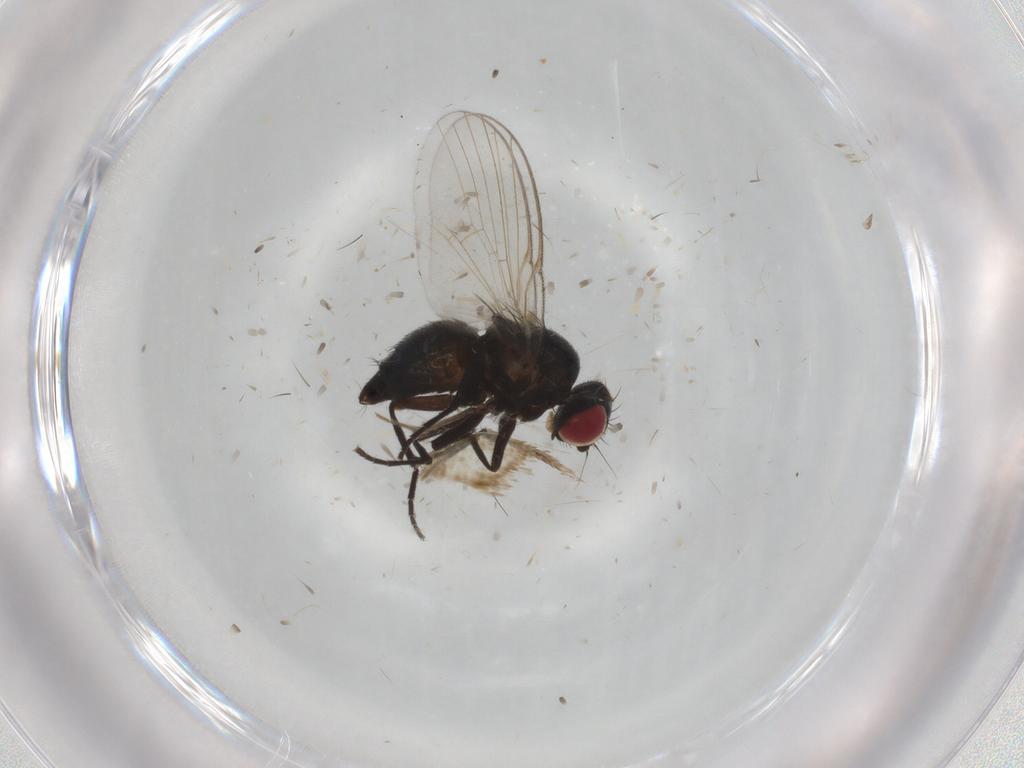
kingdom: Animalia
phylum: Arthropoda
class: Insecta
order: Diptera
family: Agromyzidae
